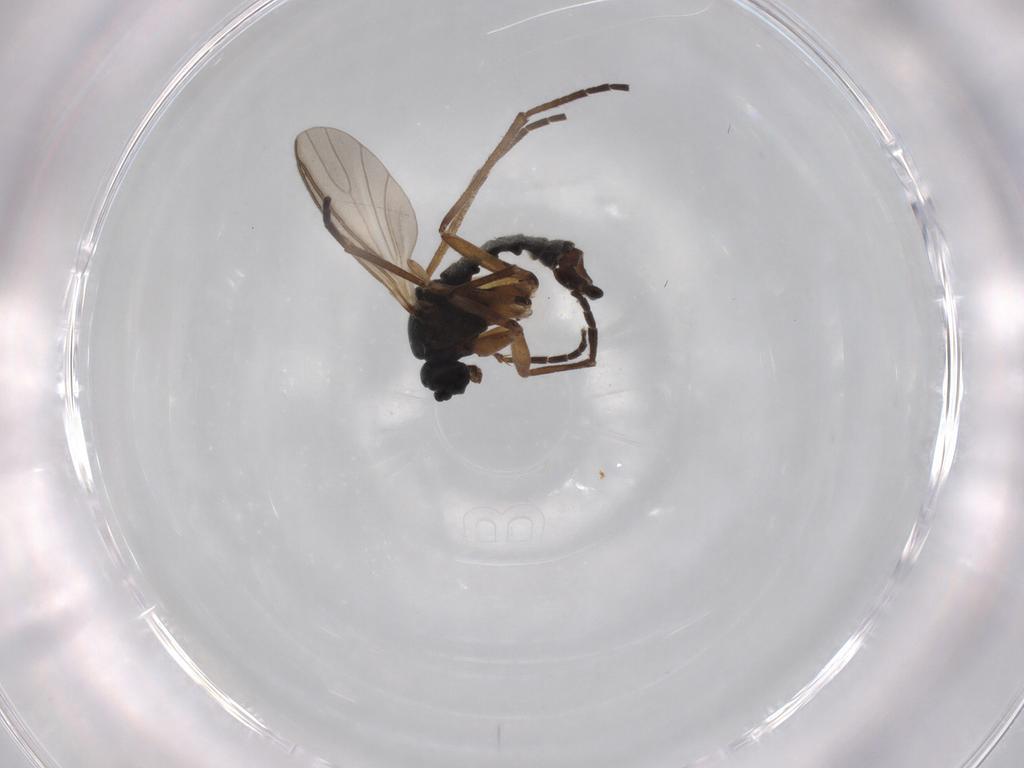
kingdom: Animalia
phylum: Arthropoda
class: Insecta
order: Diptera
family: Sciaridae
